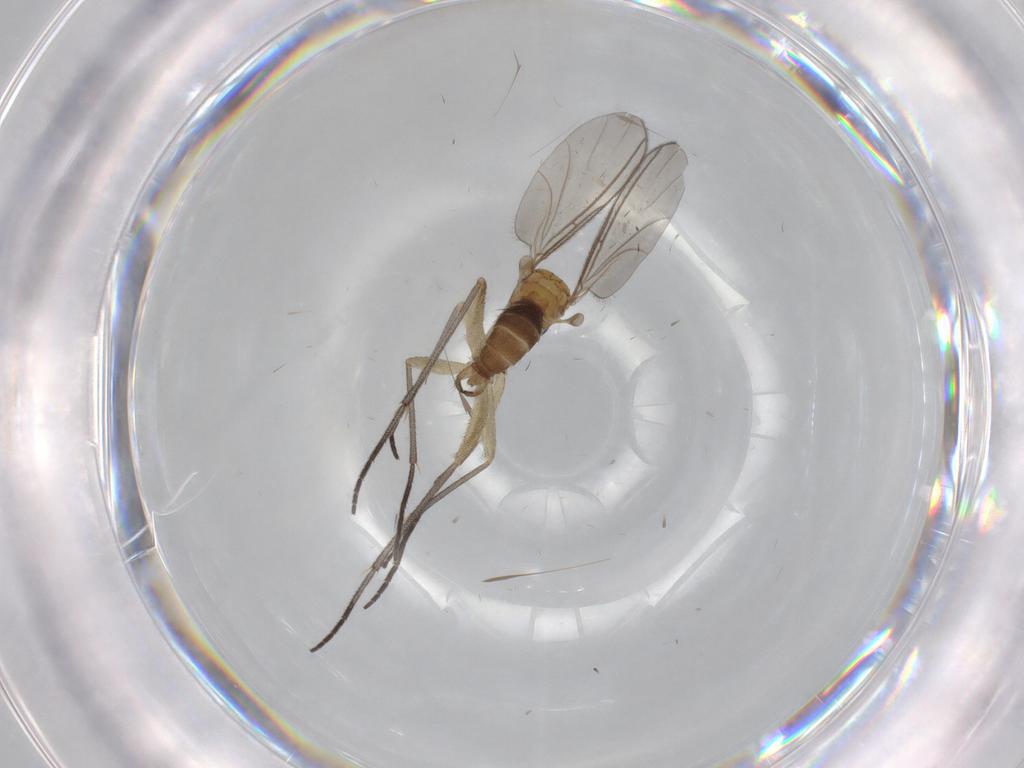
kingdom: Animalia
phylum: Arthropoda
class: Insecta
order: Diptera
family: Sciaridae
